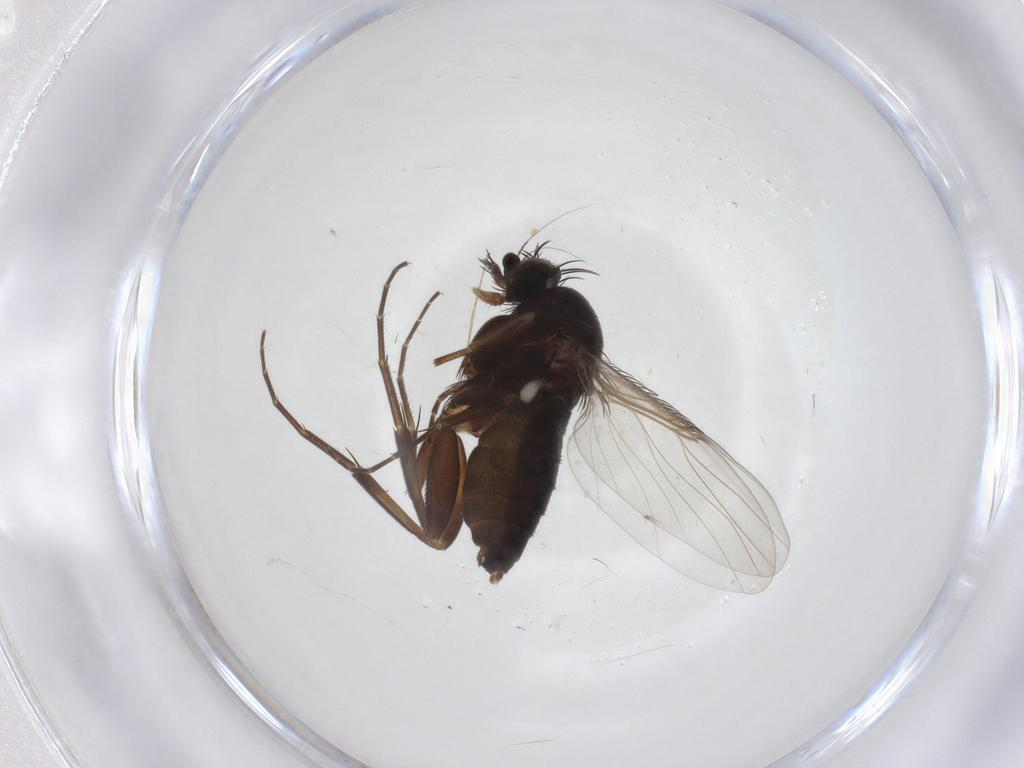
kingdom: Animalia
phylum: Arthropoda
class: Insecta
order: Diptera
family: Phoridae
